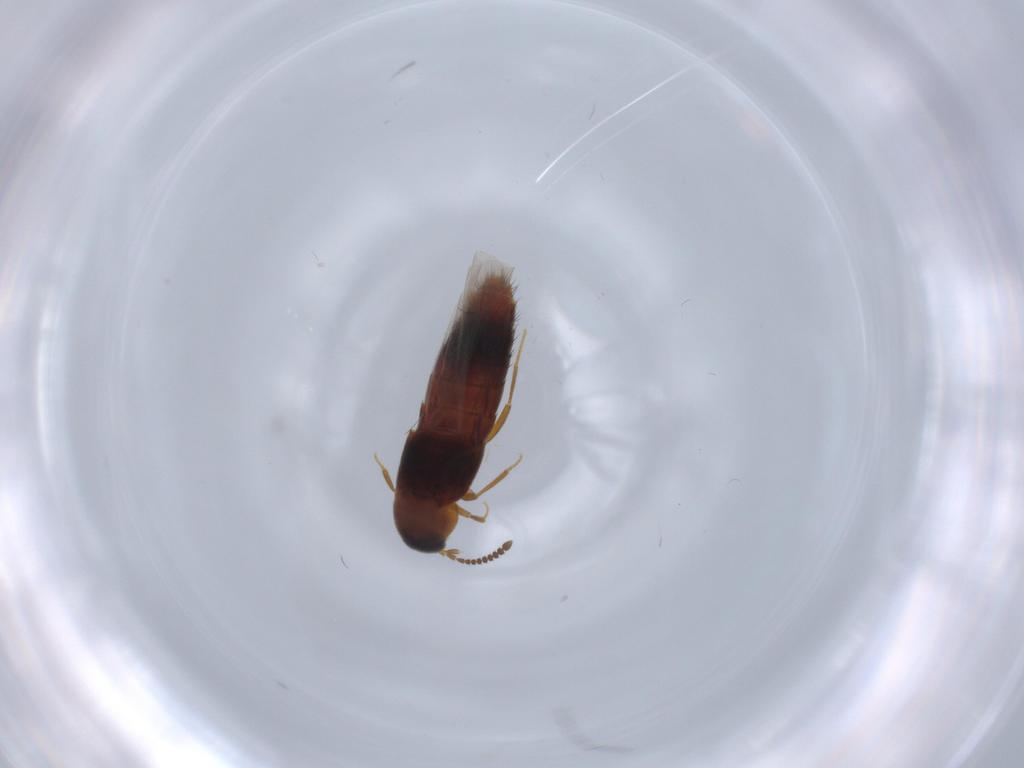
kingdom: Animalia
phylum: Arthropoda
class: Insecta
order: Coleoptera
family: Staphylinidae
